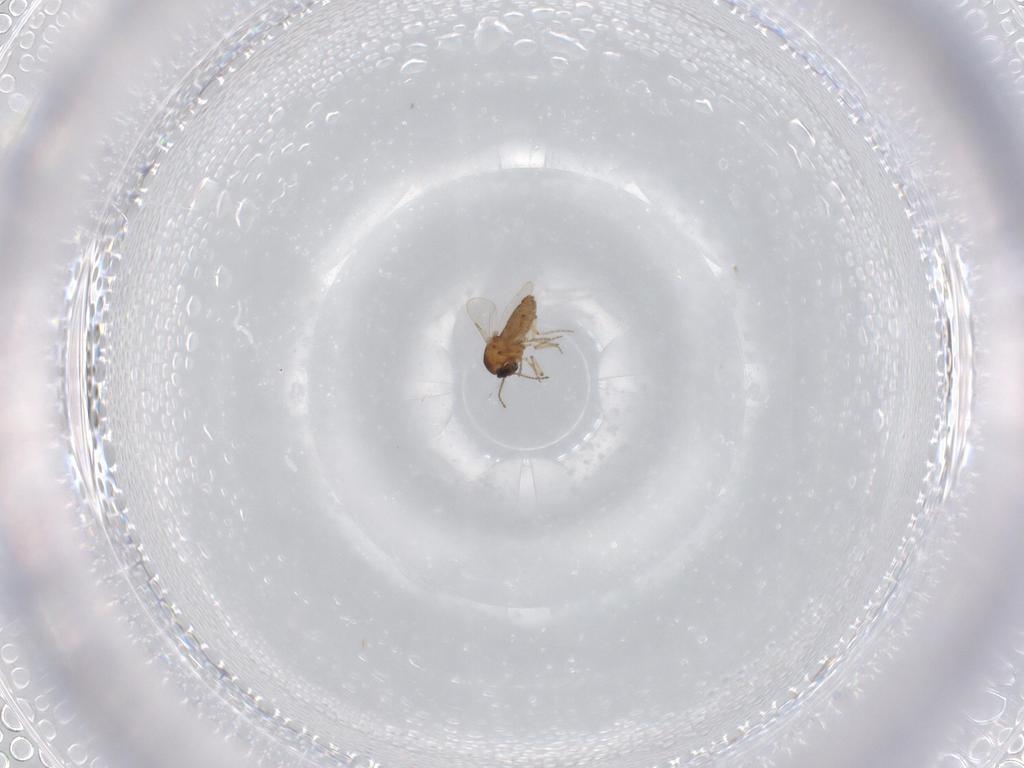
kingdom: Animalia
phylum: Arthropoda
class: Insecta
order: Diptera
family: Ceratopogonidae
